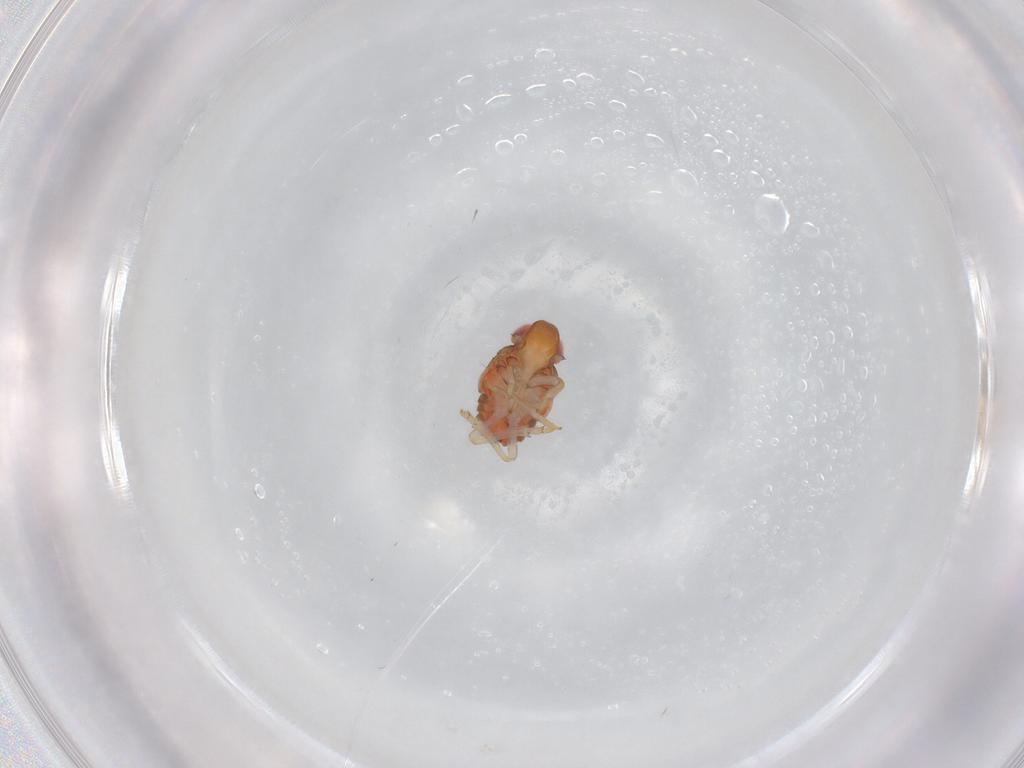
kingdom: Animalia
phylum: Arthropoda
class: Insecta
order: Hemiptera
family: Issidae
